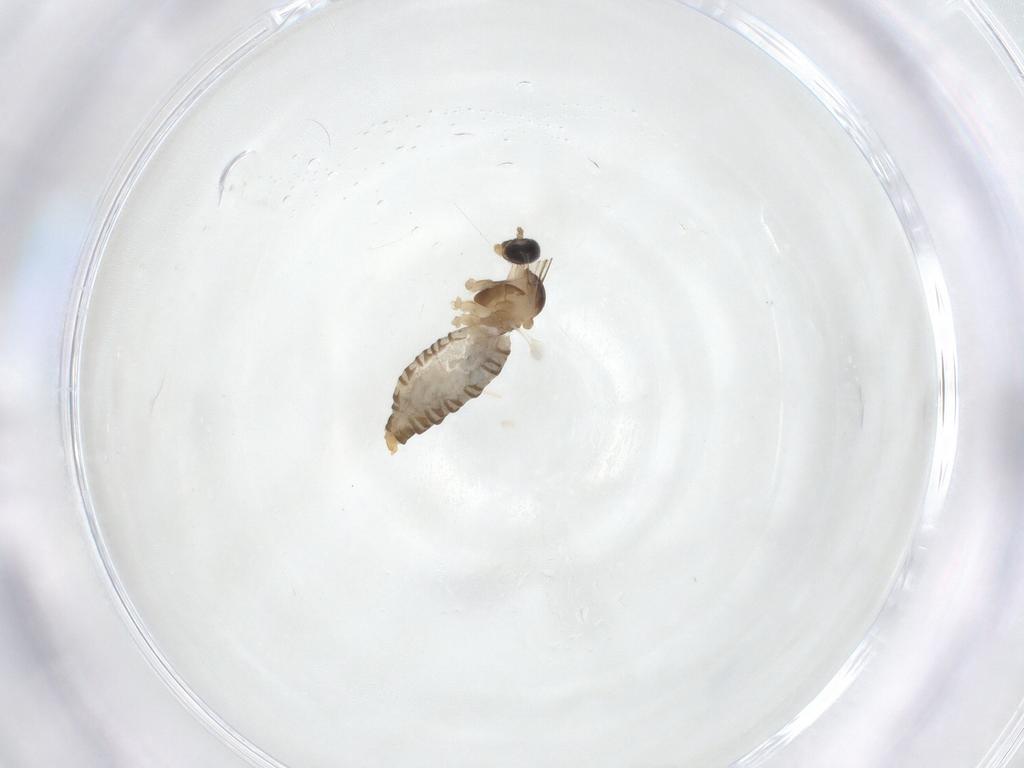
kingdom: Animalia
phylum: Arthropoda
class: Insecta
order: Diptera
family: Cecidomyiidae
